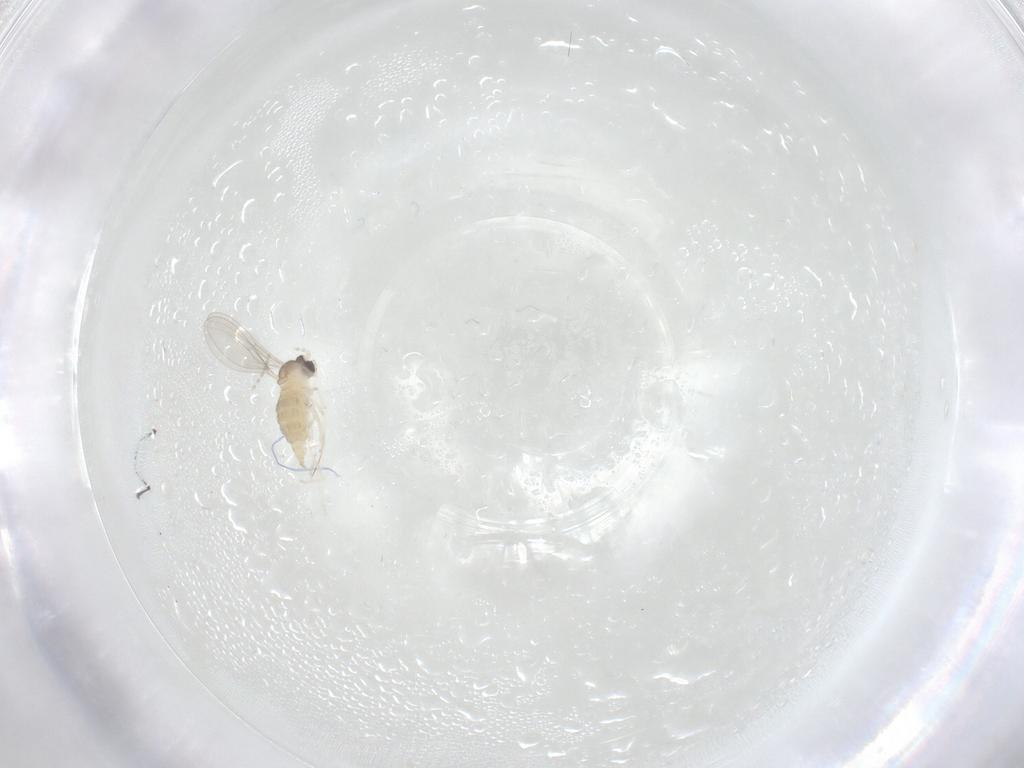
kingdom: Animalia
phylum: Arthropoda
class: Insecta
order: Diptera
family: Cecidomyiidae
